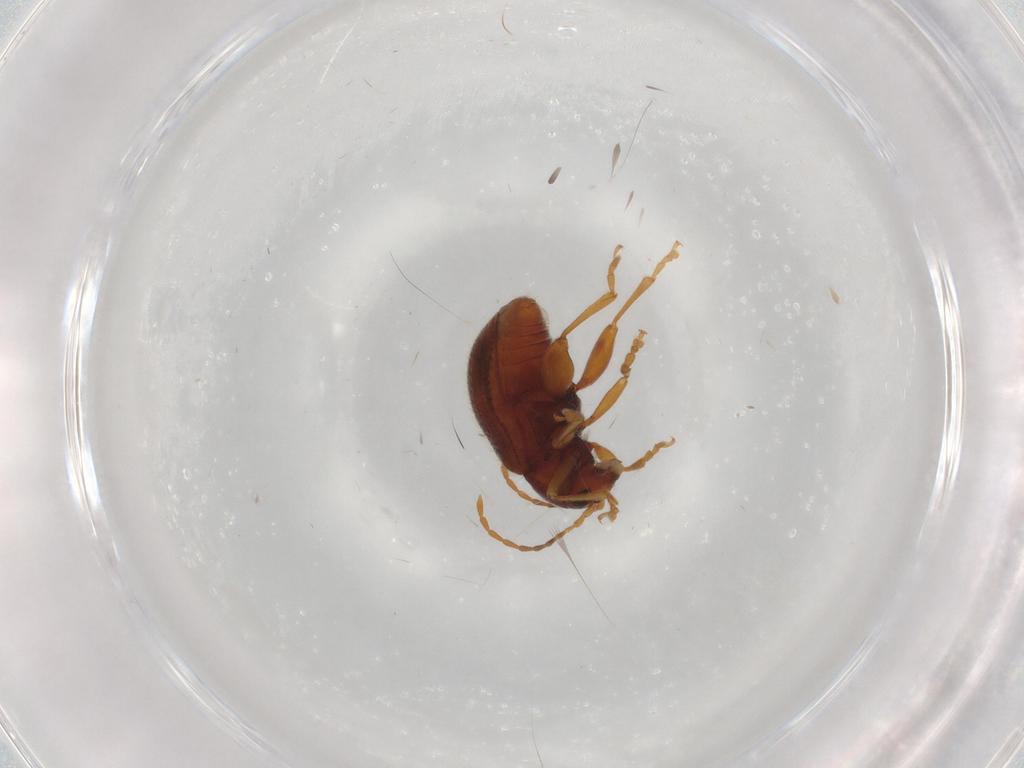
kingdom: Animalia
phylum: Arthropoda
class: Insecta
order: Coleoptera
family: Chrysomelidae
